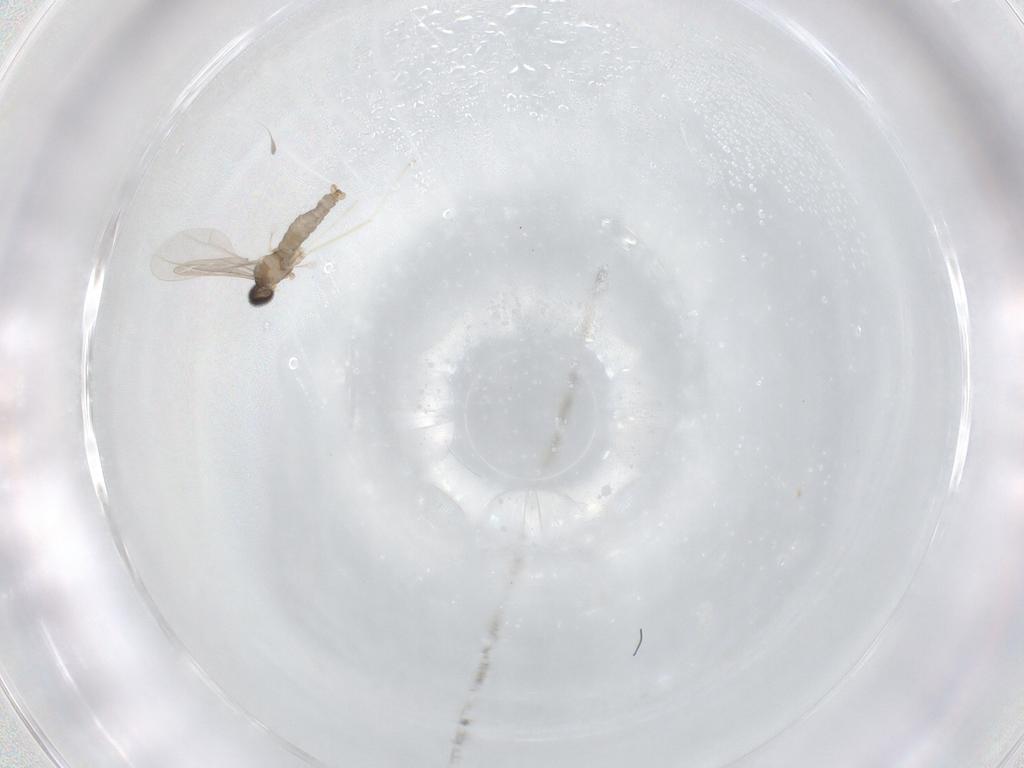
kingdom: Animalia
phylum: Arthropoda
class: Insecta
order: Diptera
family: Cecidomyiidae
